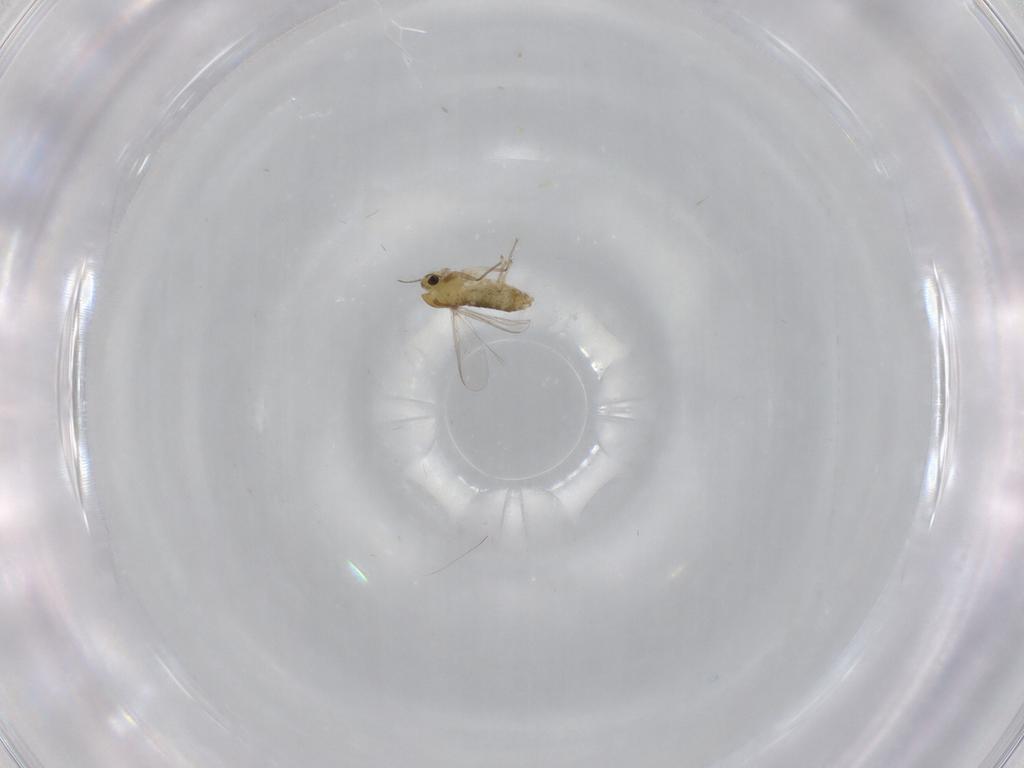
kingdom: Animalia
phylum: Arthropoda
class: Insecta
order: Diptera
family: Chironomidae
